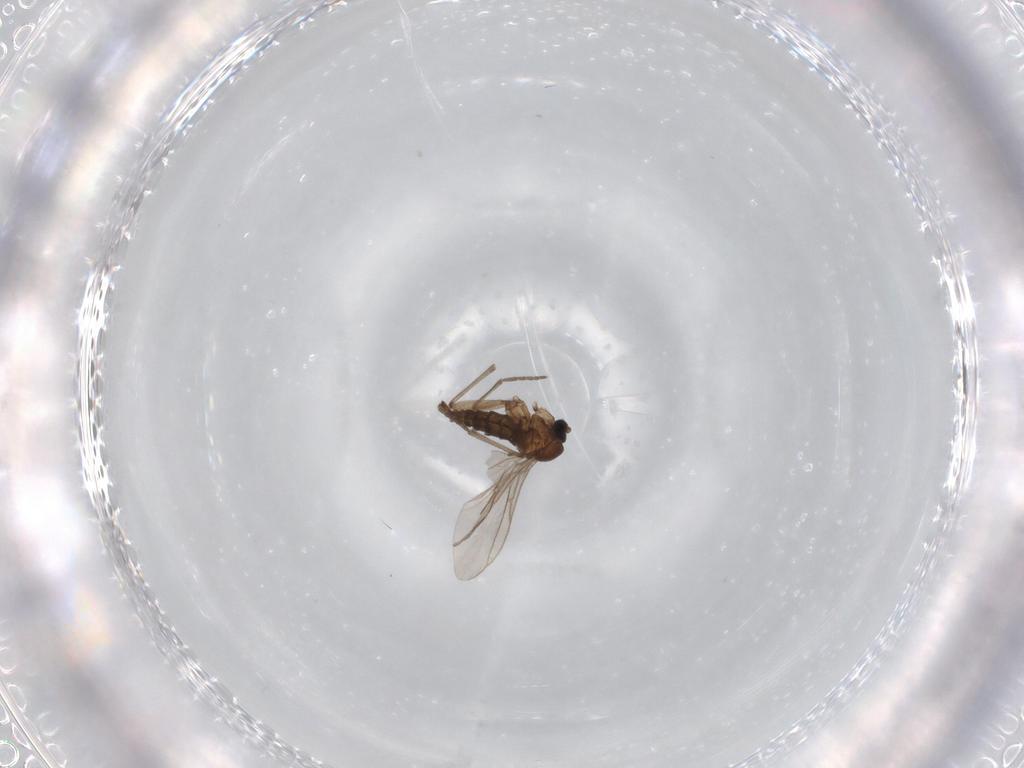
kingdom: Animalia
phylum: Arthropoda
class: Insecta
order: Diptera
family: Sciaridae
